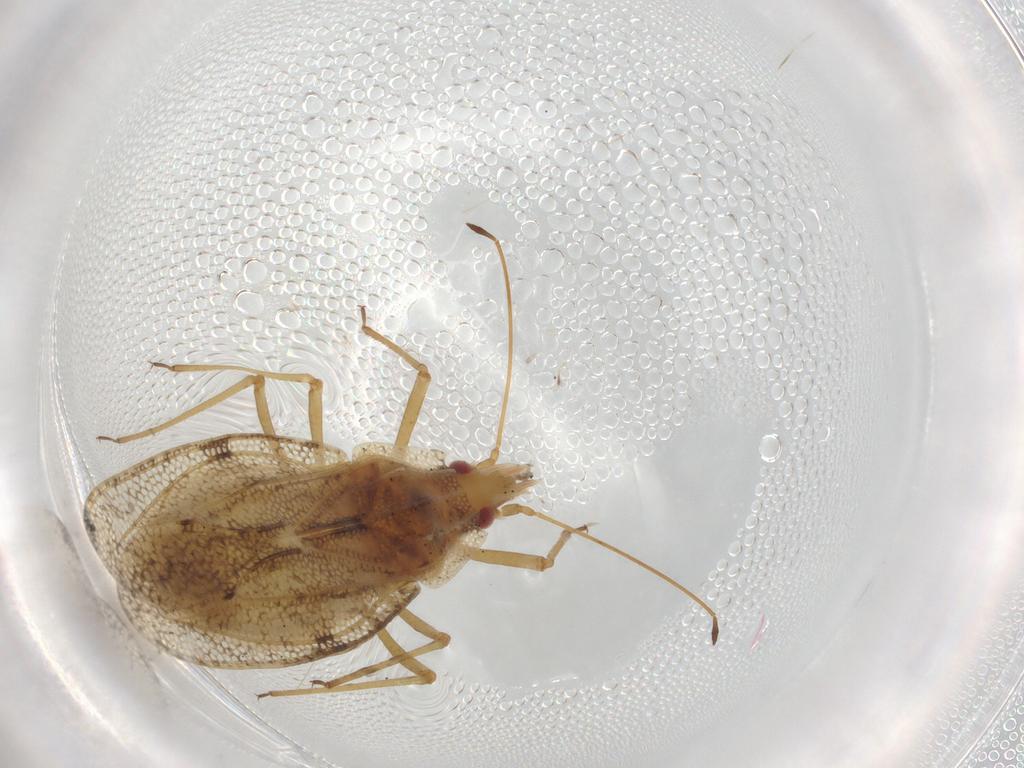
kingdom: Animalia
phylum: Arthropoda
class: Insecta
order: Hemiptera
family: Tingidae
